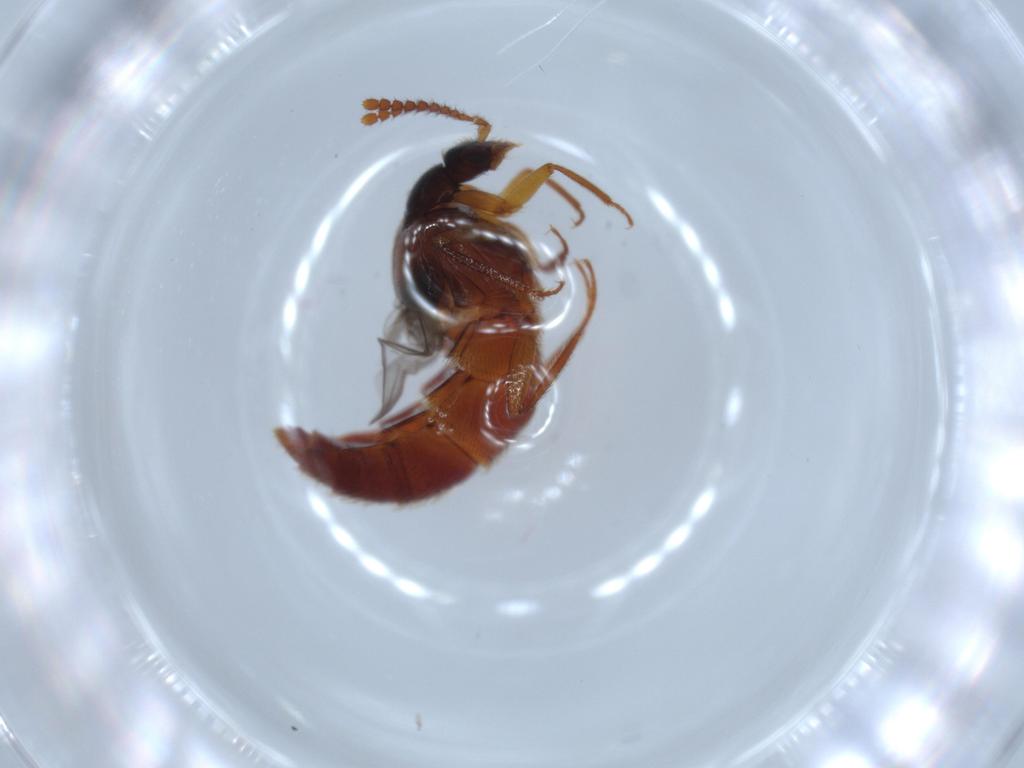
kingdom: Animalia
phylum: Arthropoda
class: Insecta
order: Coleoptera
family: Staphylinidae
